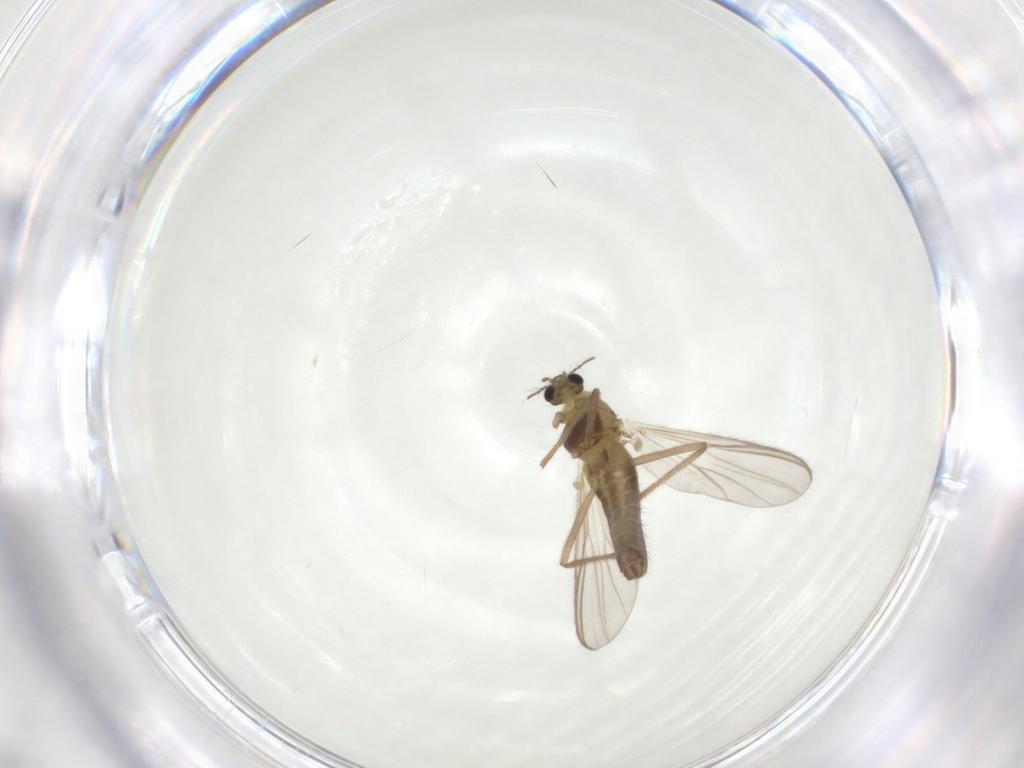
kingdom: Animalia
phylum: Arthropoda
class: Insecta
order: Diptera
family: Chironomidae
